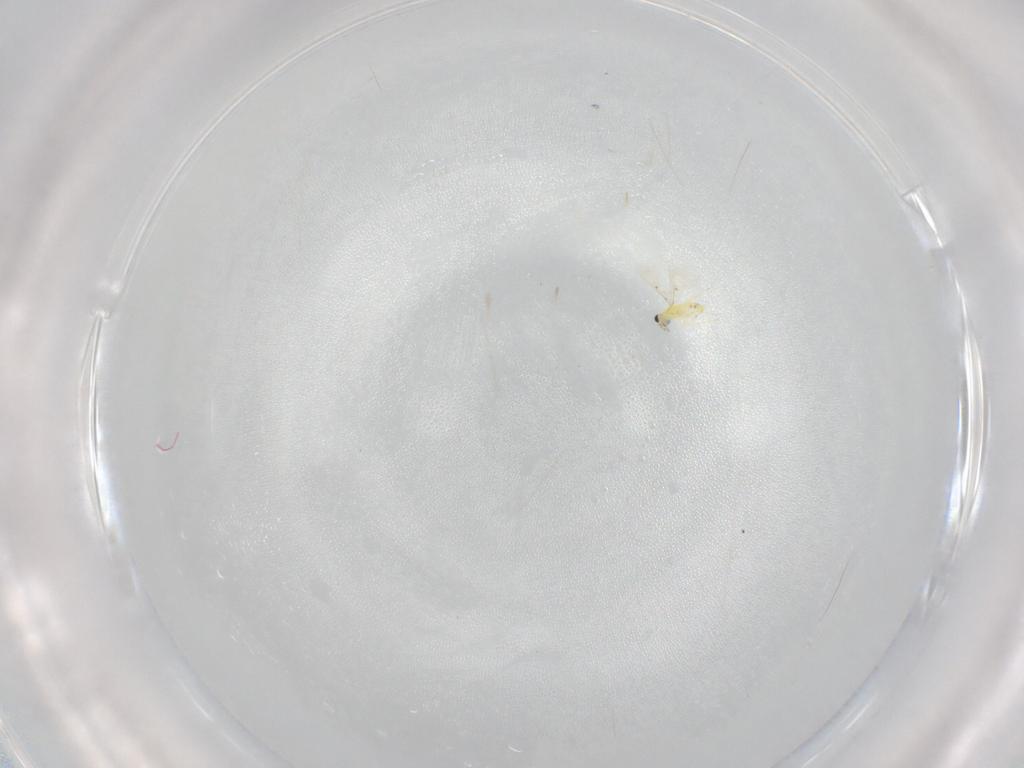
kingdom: Animalia
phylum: Arthropoda
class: Insecta
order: Hymenoptera
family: Trichogrammatidae
